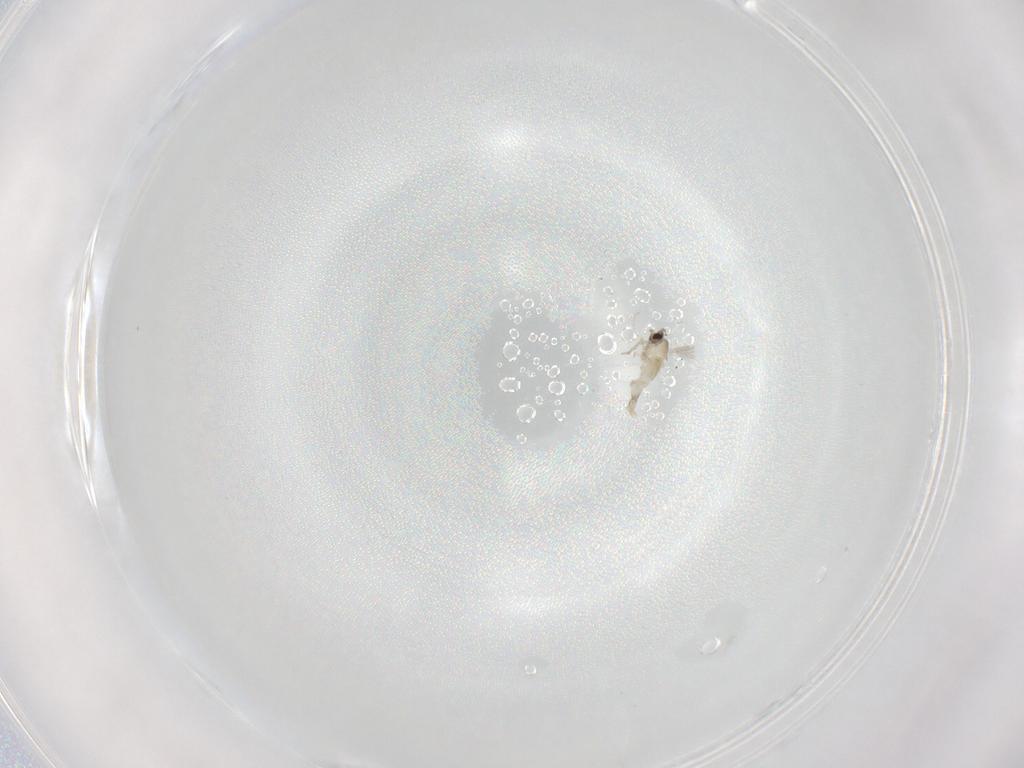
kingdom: Animalia
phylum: Arthropoda
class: Insecta
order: Diptera
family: Cecidomyiidae
